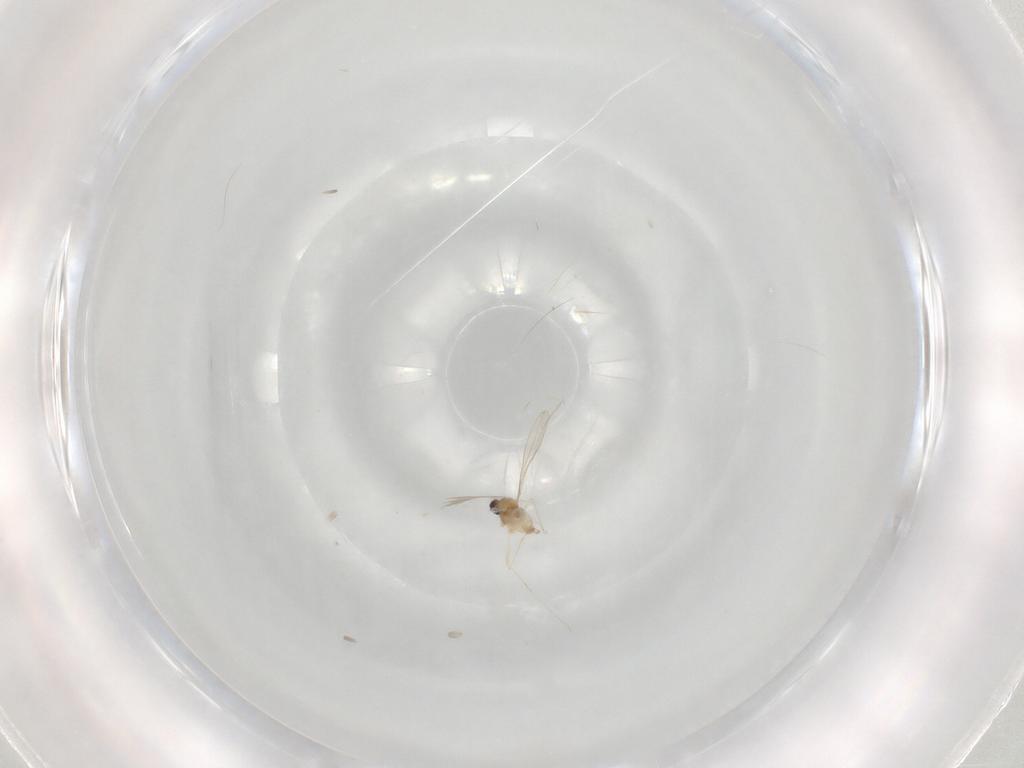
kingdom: Animalia
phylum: Arthropoda
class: Insecta
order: Diptera
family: Cecidomyiidae
